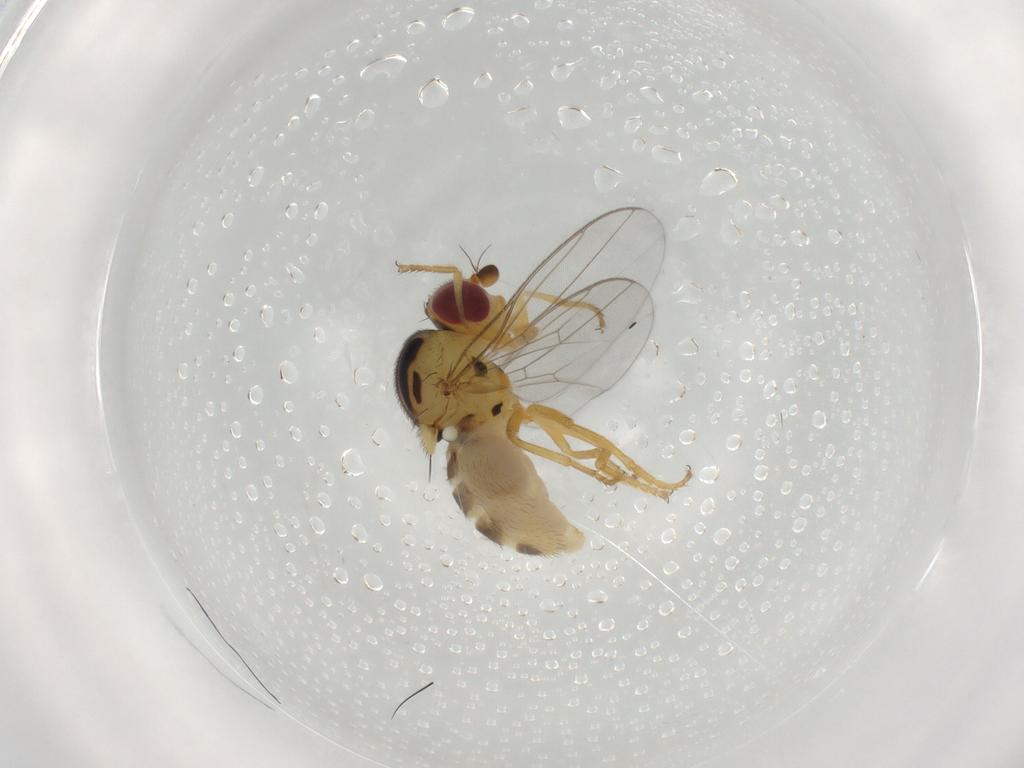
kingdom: Animalia
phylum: Arthropoda
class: Insecta
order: Diptera
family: Chloropidae
